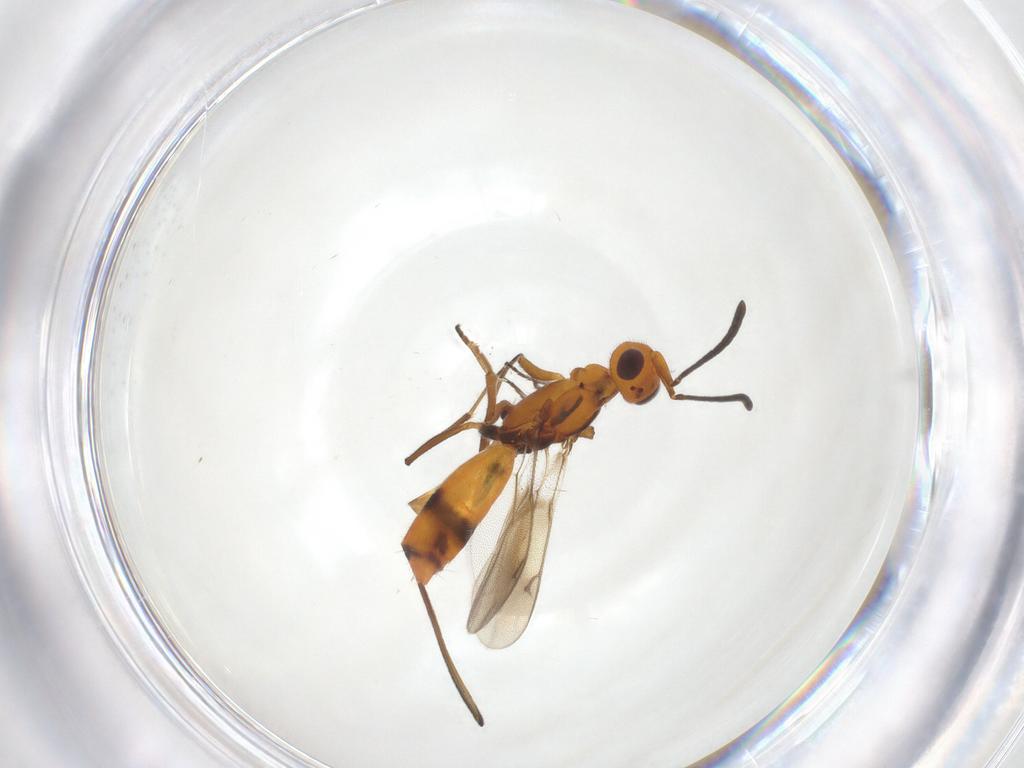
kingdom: Animalia
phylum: Arthropoda
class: Insecta
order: Hymenoptera
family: Eupelmidae
